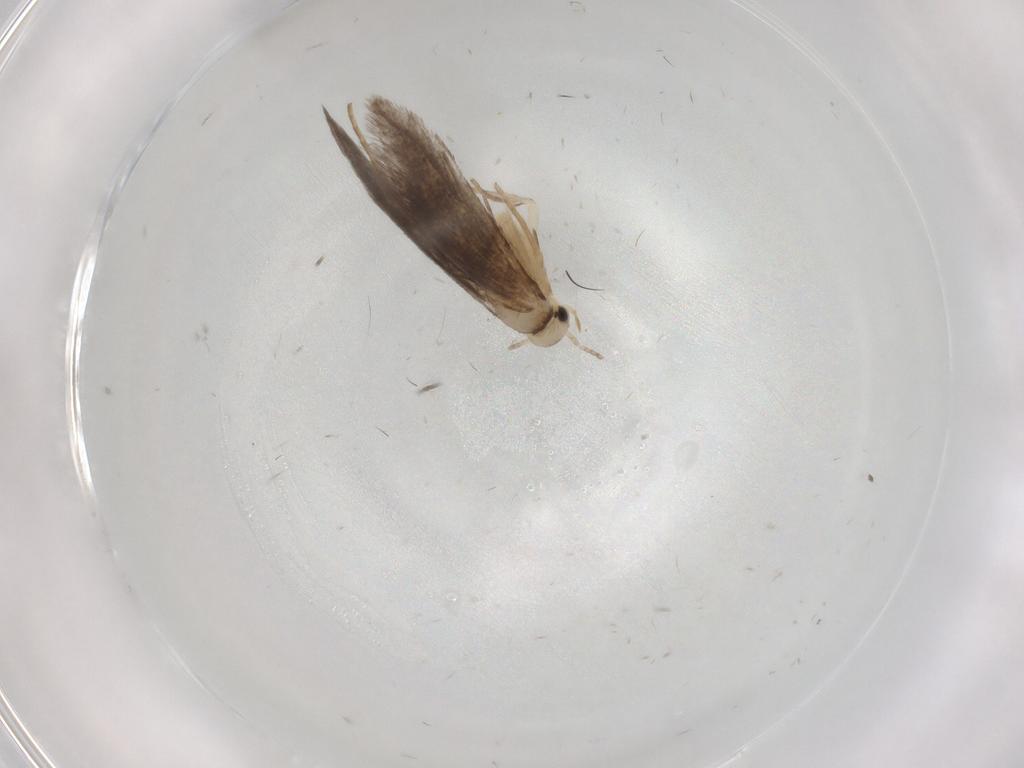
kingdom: Animalia
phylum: Arthropoda
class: Insecta
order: Lepidoptera
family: Schreckensteiniidae
